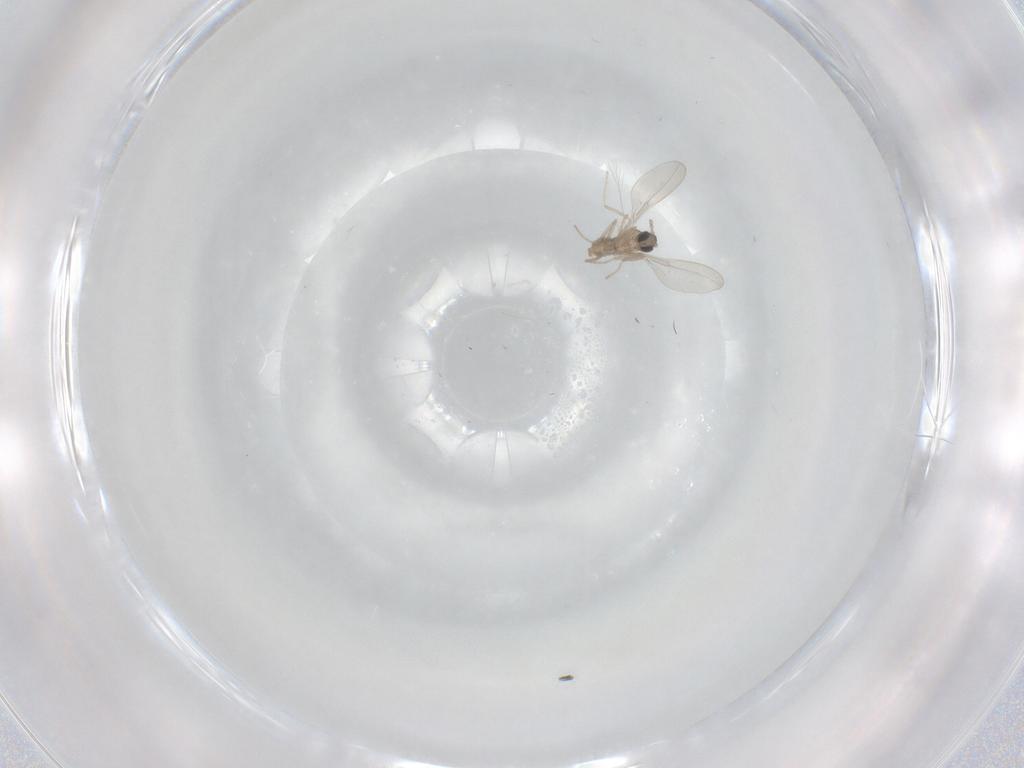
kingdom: Animalia
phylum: Arthropoda
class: Insecta
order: Diptera
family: Cecidomyiidae
